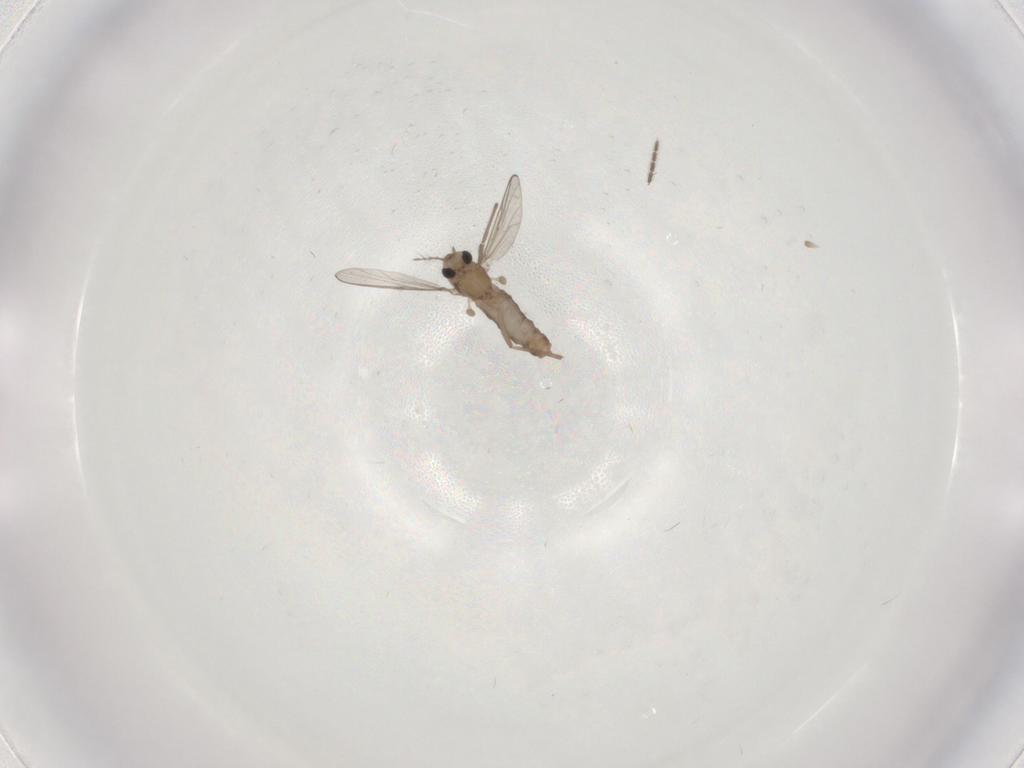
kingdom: Animalia
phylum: Arthropoda
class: Insecta
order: Diptera
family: Chironomidae
